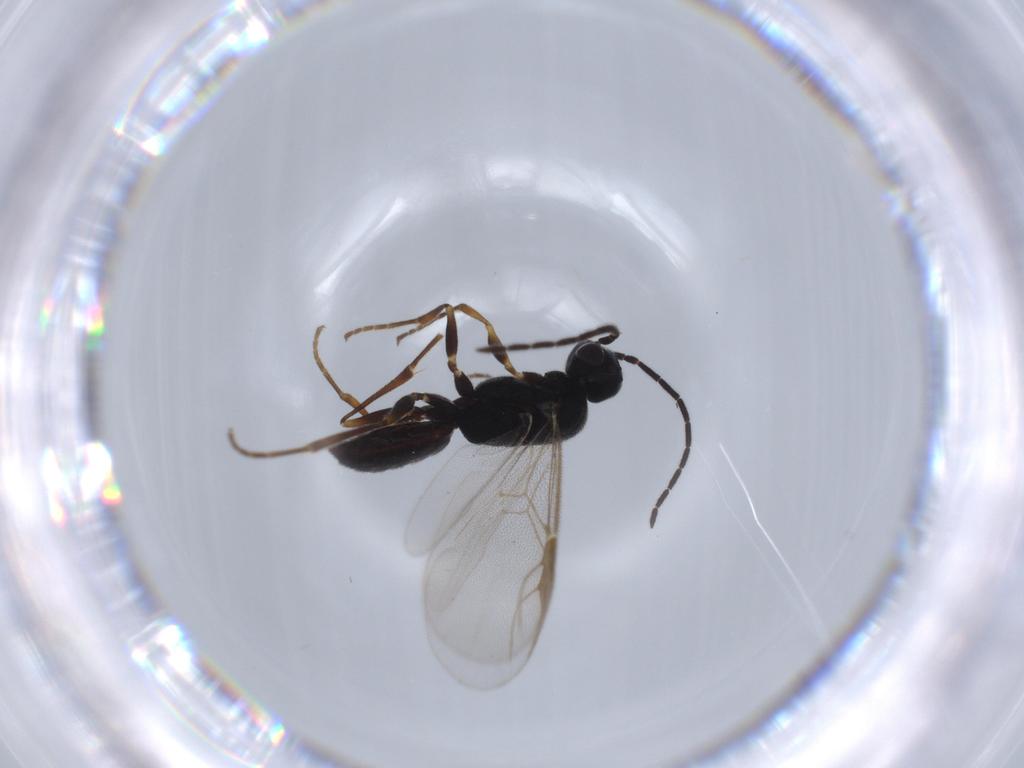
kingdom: Animalia
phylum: Arthropoda
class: Insecta
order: Hymenoptera
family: Dryinidae
